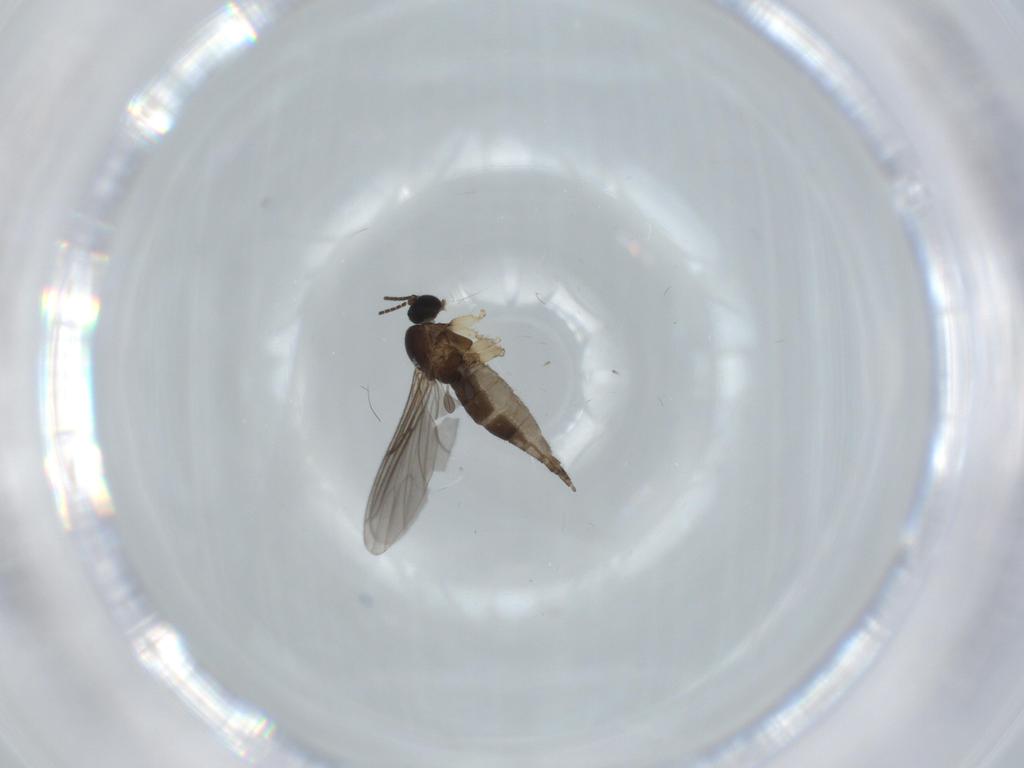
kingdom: Animalia
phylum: Arthropoda
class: Insecta
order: Diptera
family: Sciaridae
